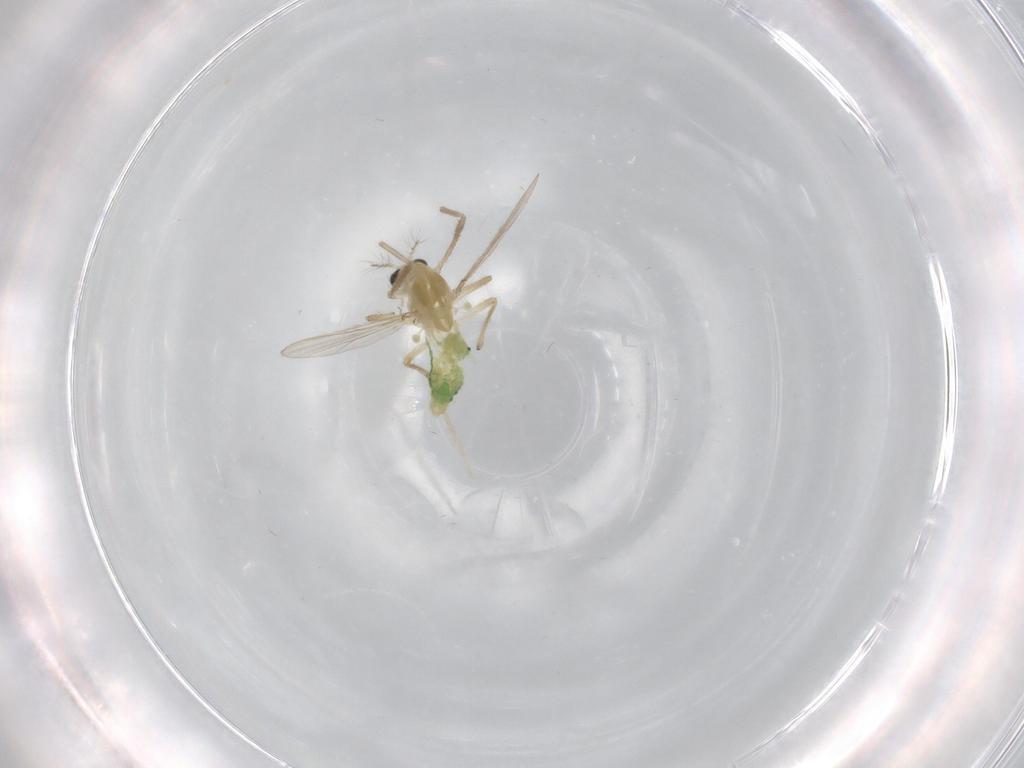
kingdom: Animalia
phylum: Arthropoda
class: Insecta
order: Diptera
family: Chironomidae
